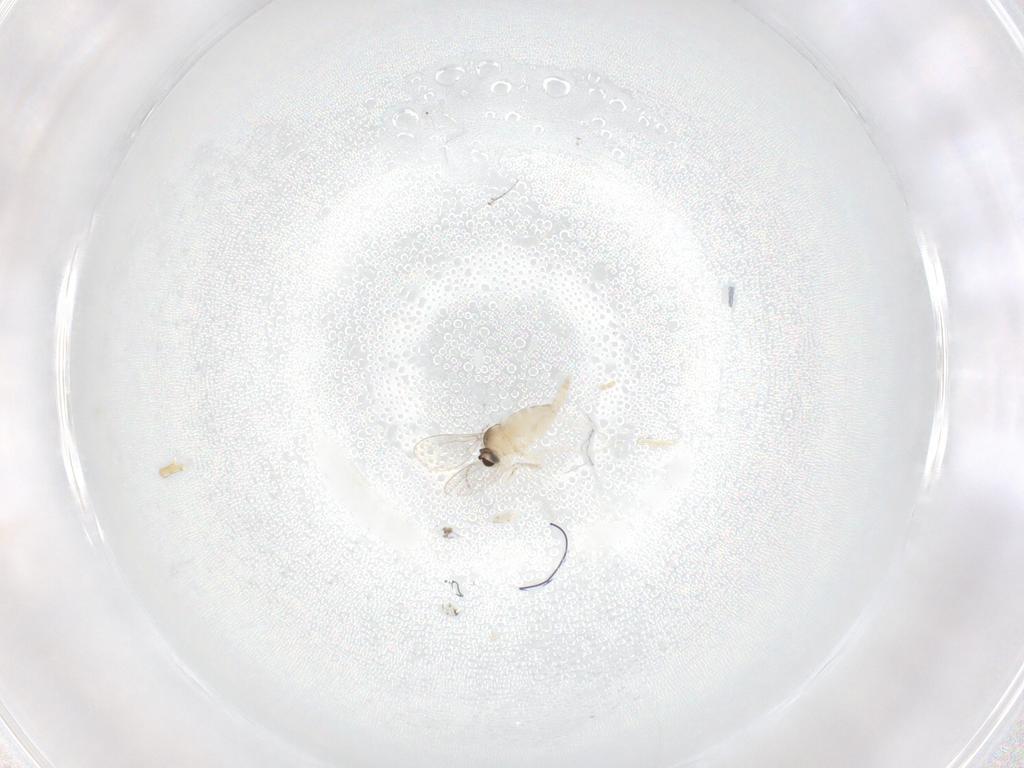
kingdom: Animalia
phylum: Arthropoda
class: Insecta
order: Diptera
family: Cecidomyiidae
